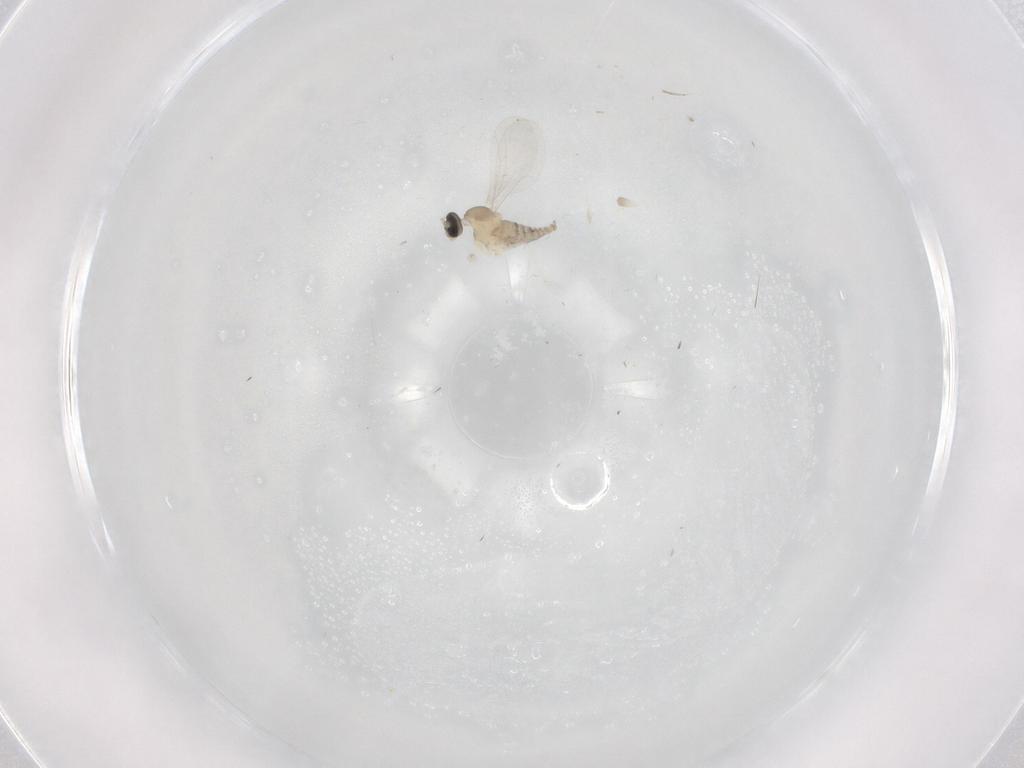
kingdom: Animalia
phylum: Arthropoda
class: Insecta
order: Diptera
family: Cecidomyiidae
